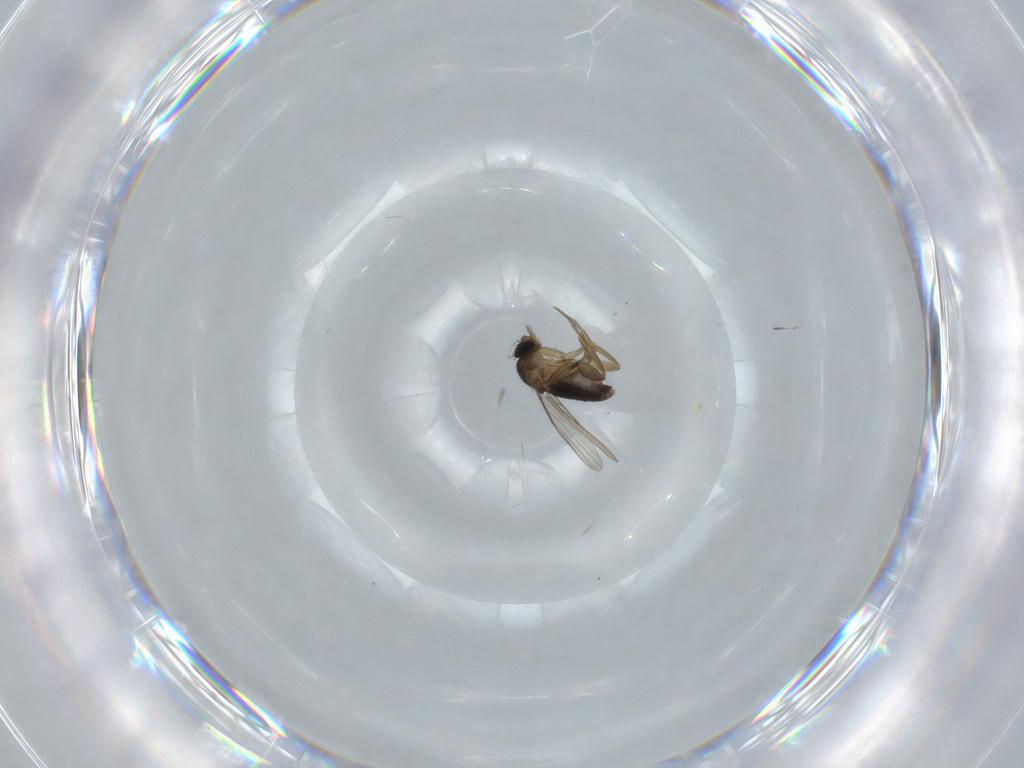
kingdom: Animalia
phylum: Arthropoda
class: Insecta
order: Diptera
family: Phoridae
